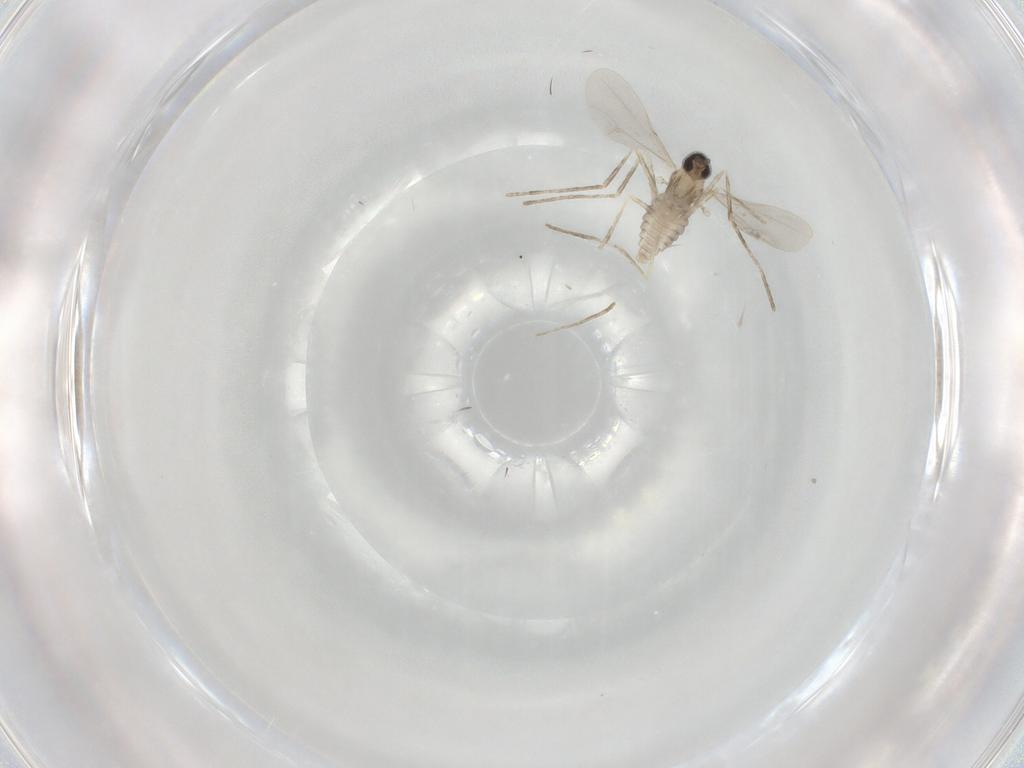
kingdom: Animalia
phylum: Arthropoda
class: Insecta
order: Diptera
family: Cecidomyiidae
